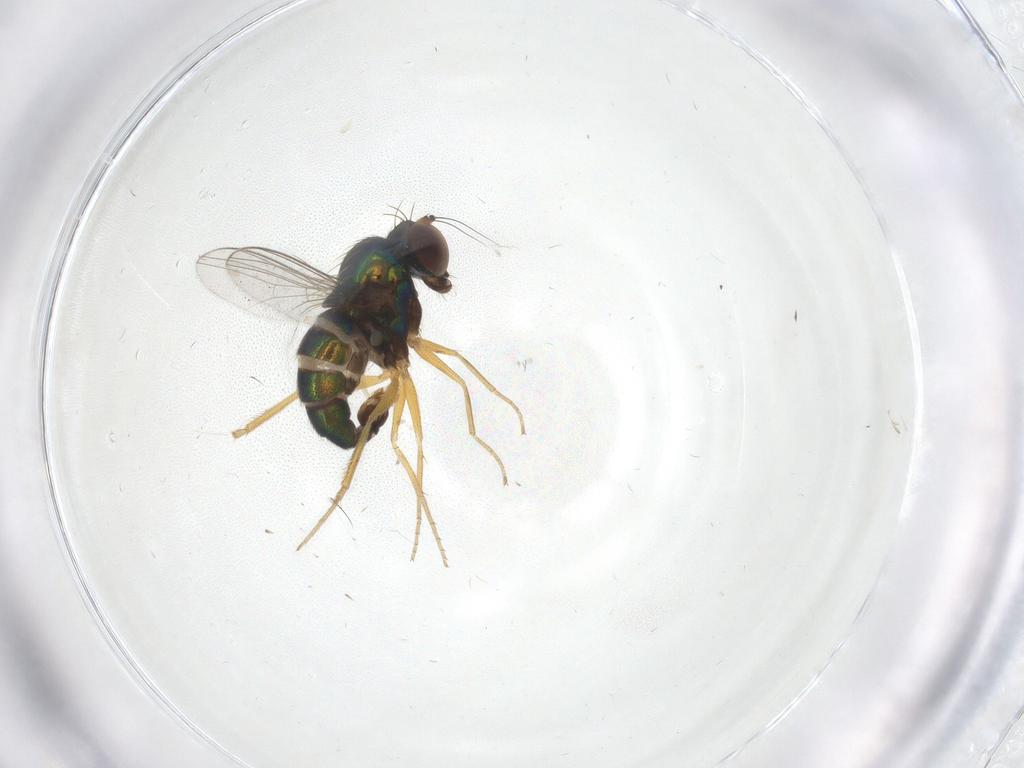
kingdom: Animalia
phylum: Arthropoda
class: Insecta
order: Diptera
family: Dolichopodidae
